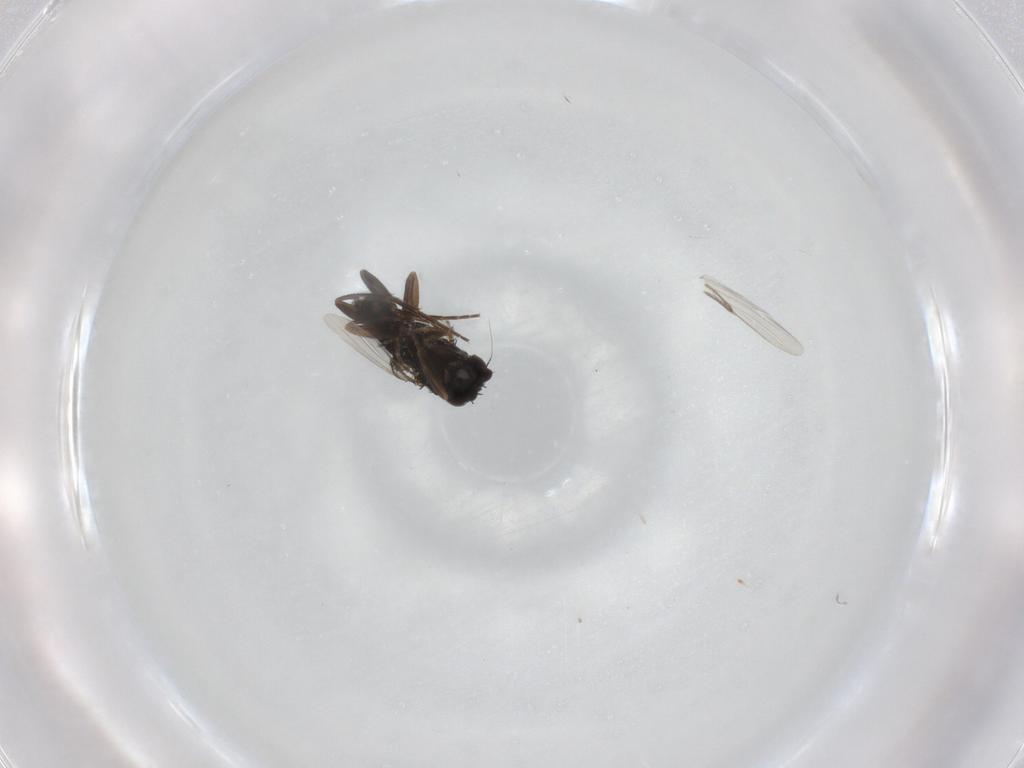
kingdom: Animalia
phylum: Arthropoda
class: Insecta
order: Diptera
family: Phoridae
